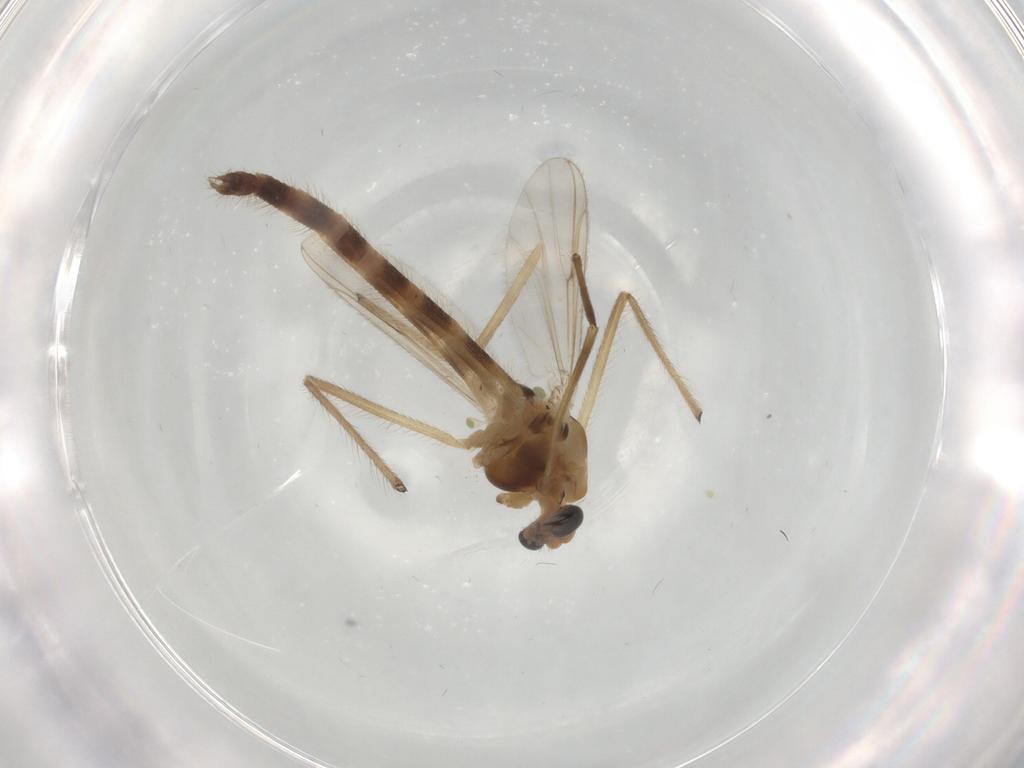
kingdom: Animalia
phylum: Arthropoda
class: Insecta
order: Diptera
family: Chironomidae
